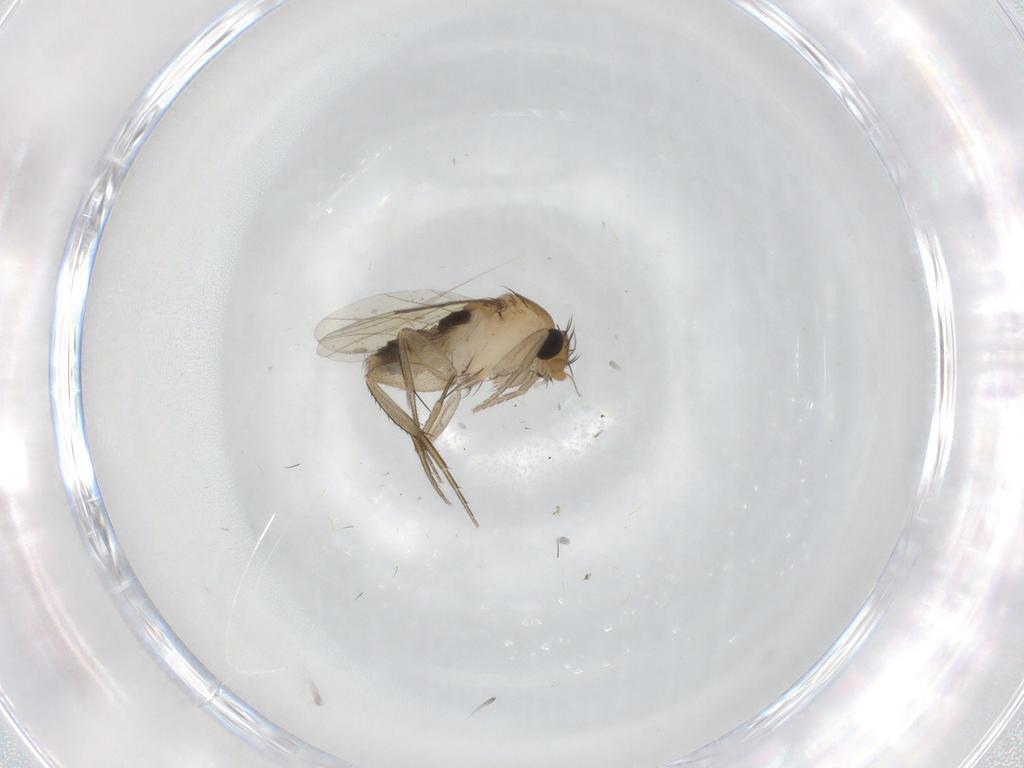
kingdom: Animalia
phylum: Arthropoda
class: Insecta
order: Diptera
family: Phoridae
